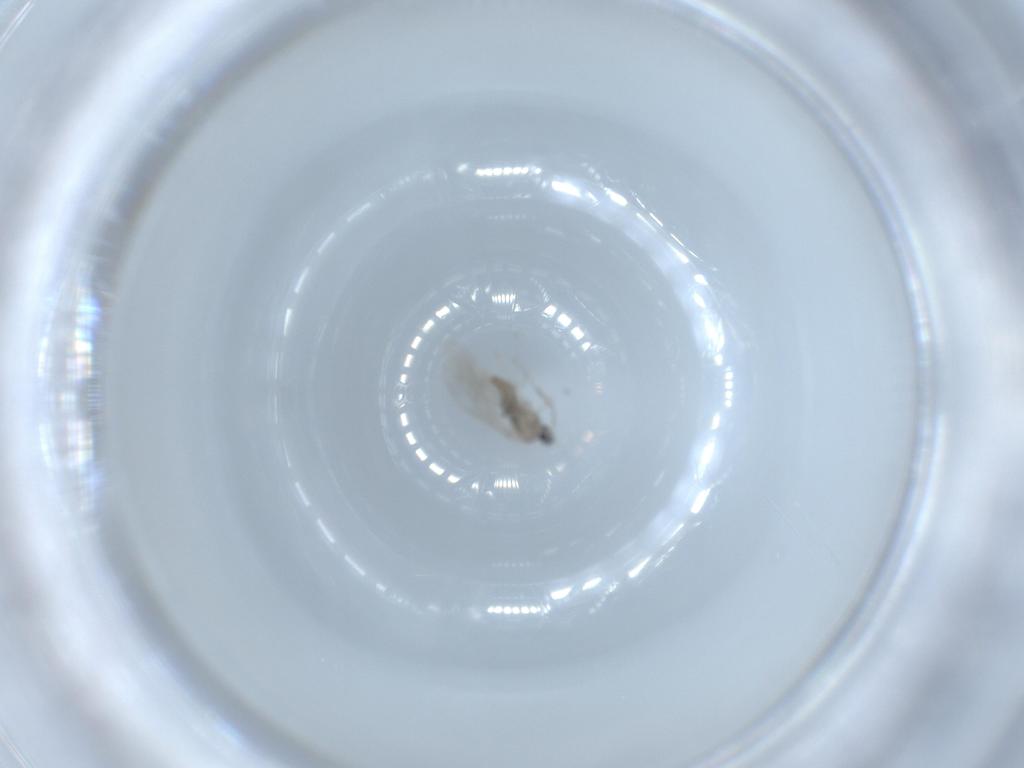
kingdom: Animalia
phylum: Arthropoda
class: Insecta
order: Diptera
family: Cecidomyiidae
